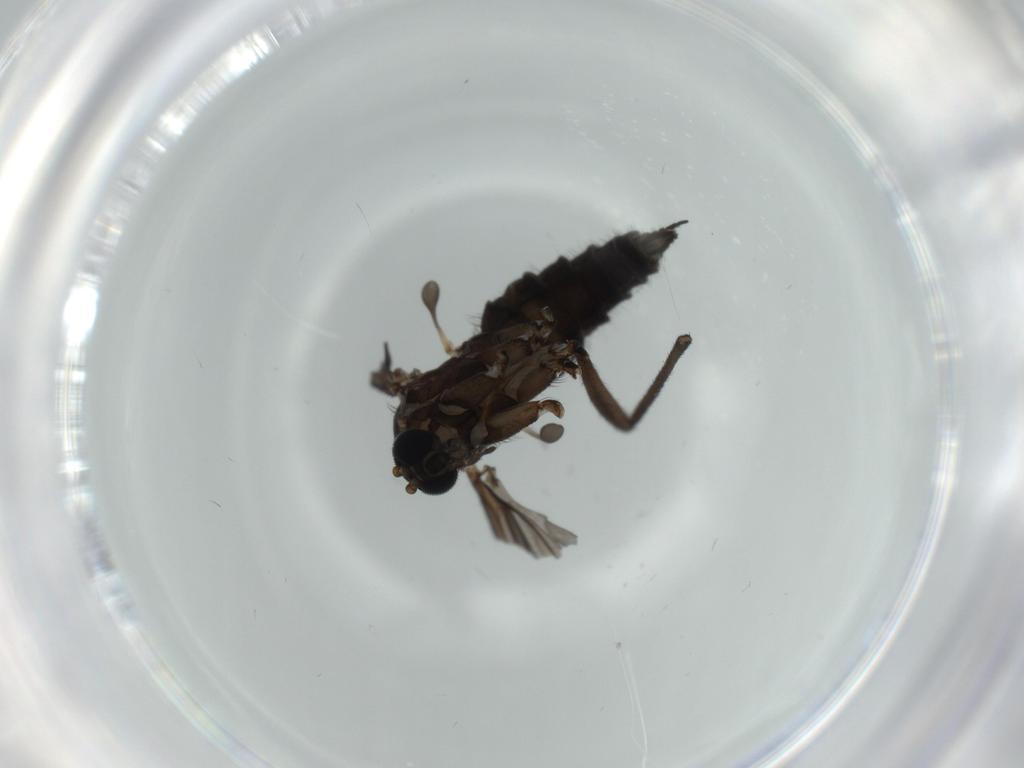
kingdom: Animalia
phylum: Arthropoda
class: Insecta
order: Diptera
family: Sciaridae
